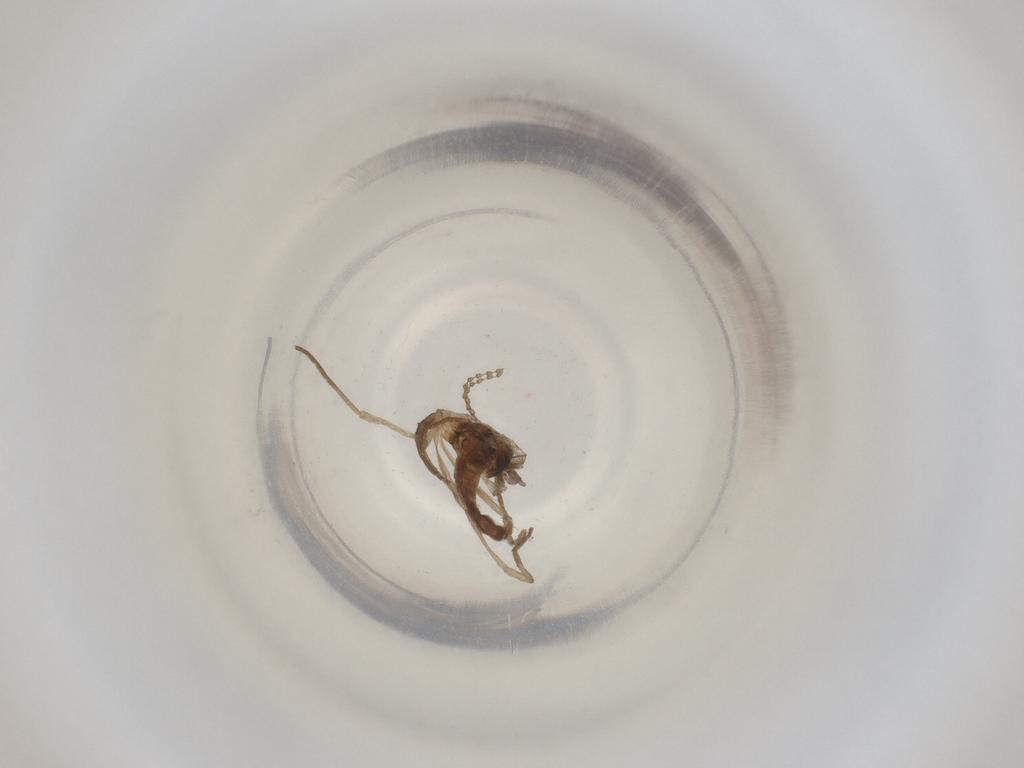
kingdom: Animalia
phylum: Arthropoda
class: Insecta
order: Diptera
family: Cecidomyiidae
